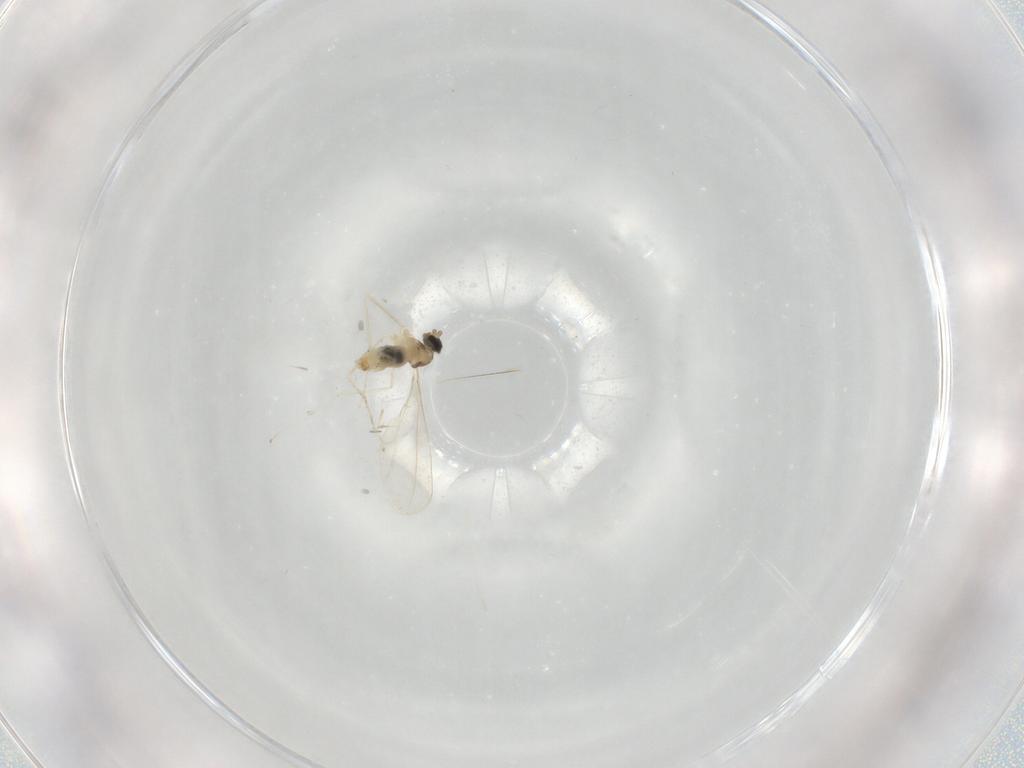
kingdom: Animalia
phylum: Arthropoda
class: Insecta
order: Diptera
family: Cecidomyiidae
